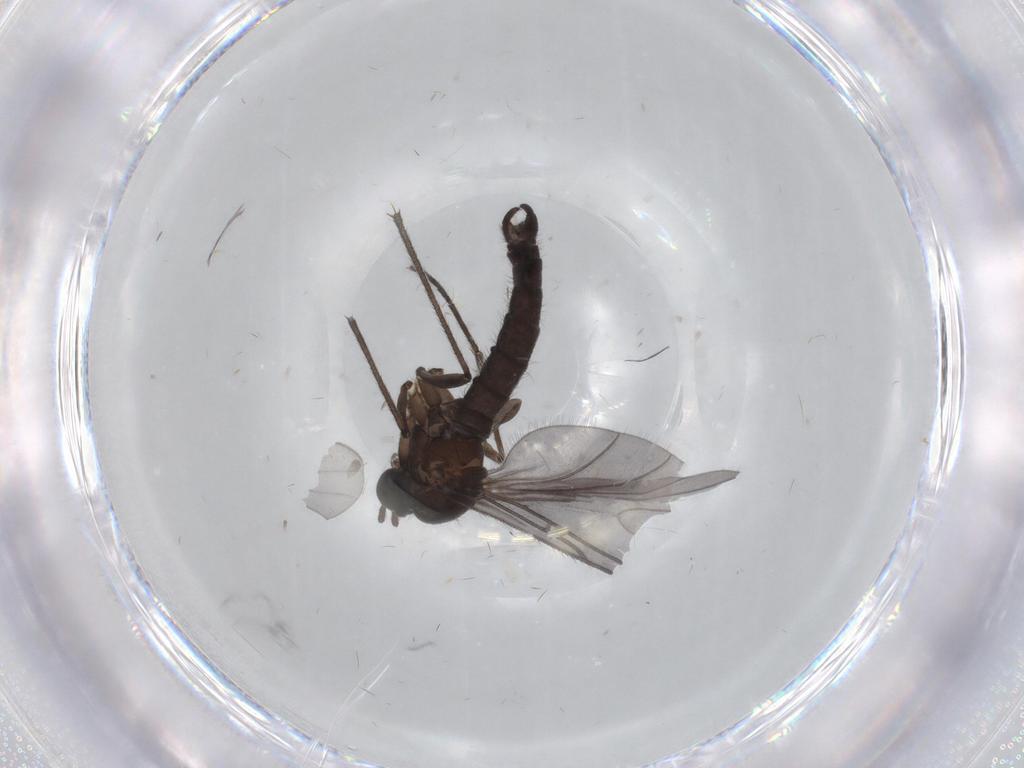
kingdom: Animalia
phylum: Arthropoda
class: Insecta
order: Diptera
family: Sciaridae
